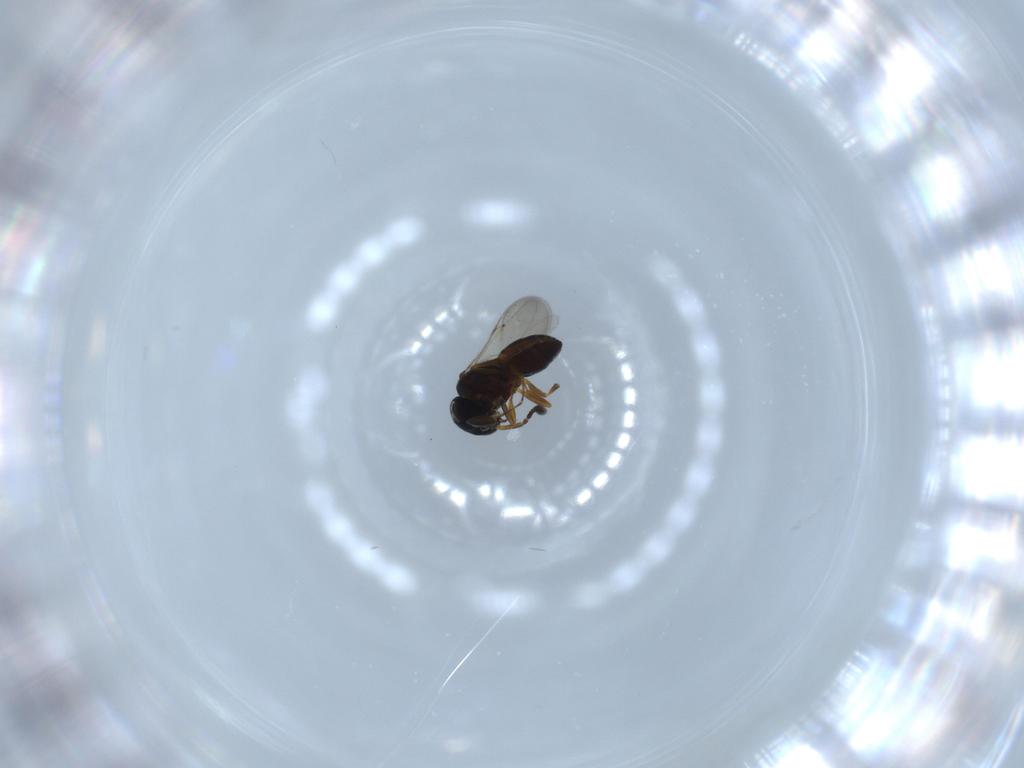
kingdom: Animalia
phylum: Arthropoda
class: Insecta
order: Hymenoptera
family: Scelionidae
